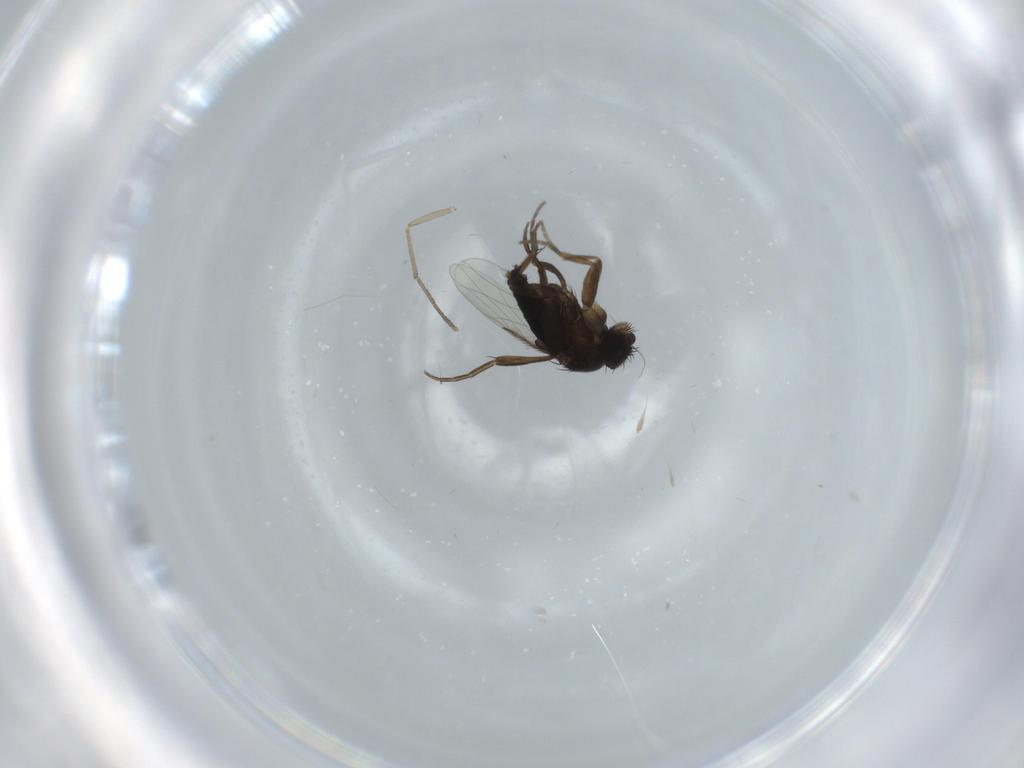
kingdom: Animalia
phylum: Arthropoda
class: Insecta
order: Diptera
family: Phoridae
